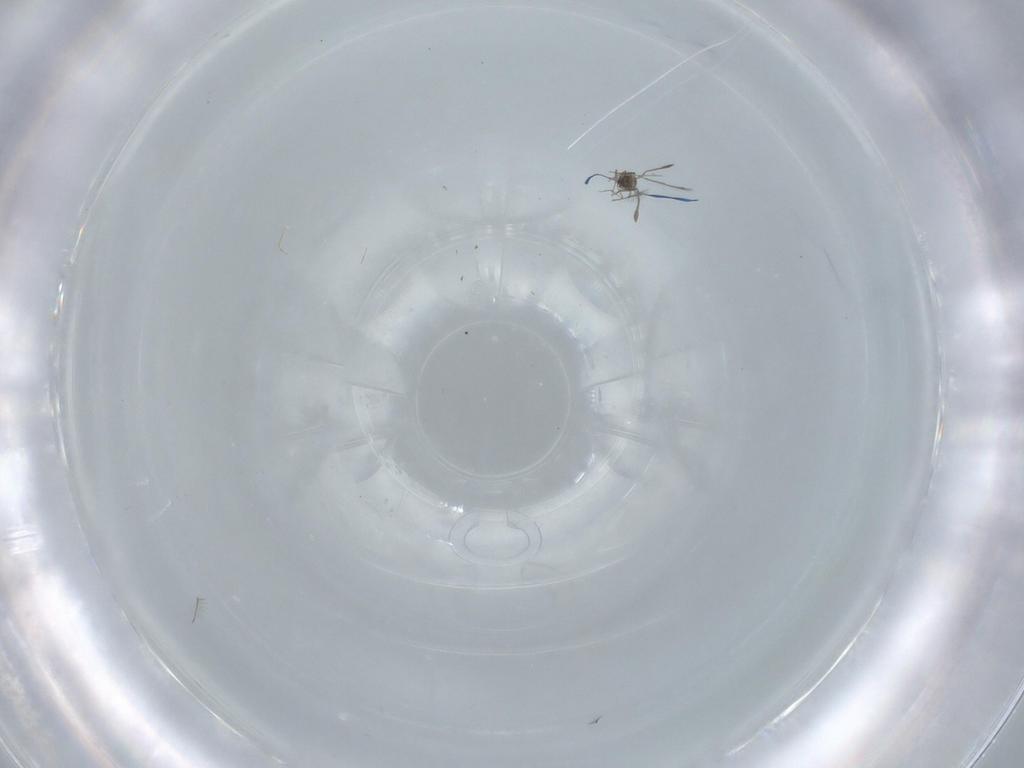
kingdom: Animalia
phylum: Arthropoda
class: Insecta
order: Hymenoptera
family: Mymaridae
